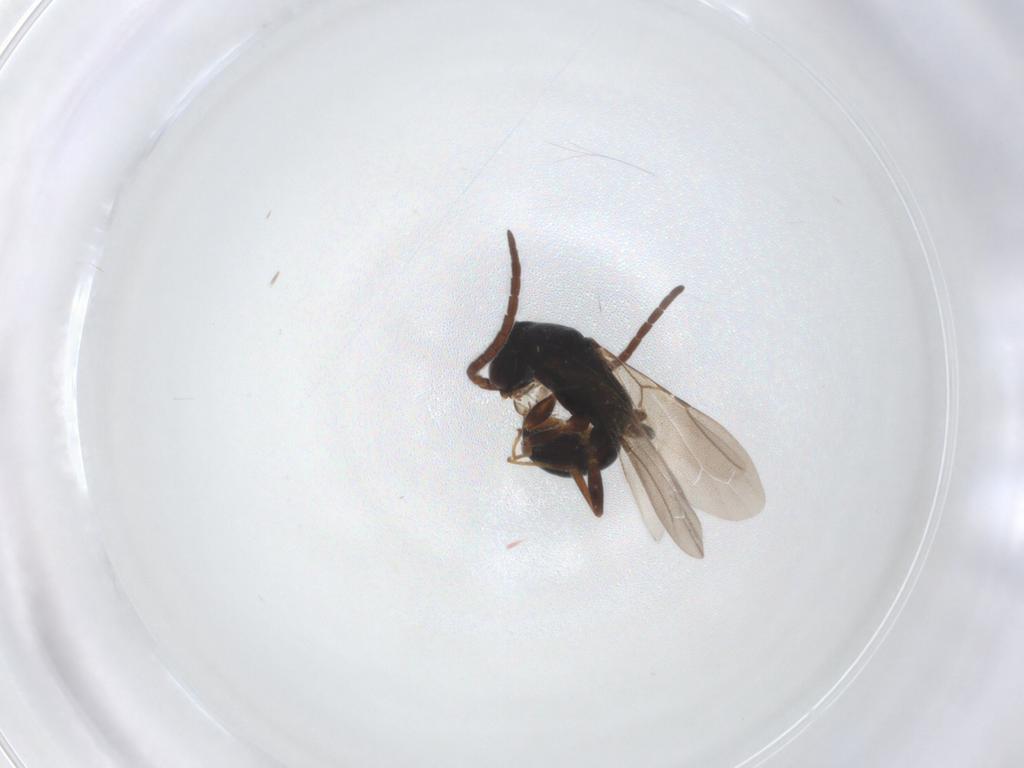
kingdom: Animalia
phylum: Arthropoda
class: Insecta
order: Hymenoptera
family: Bethylidae
